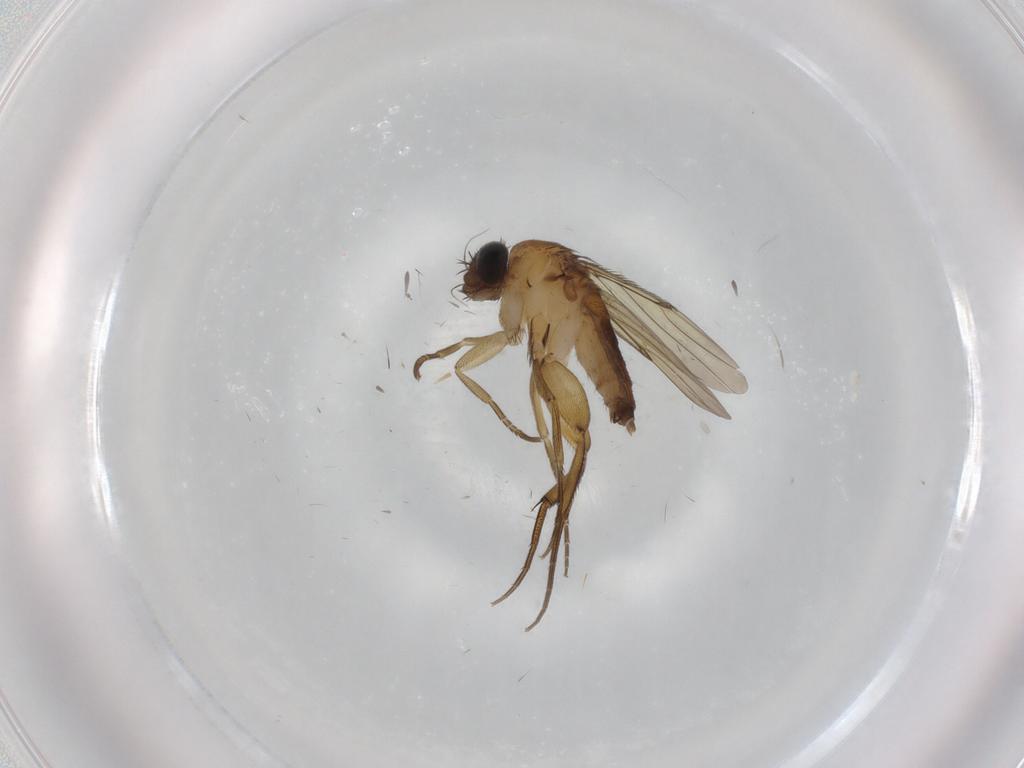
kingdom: Animalia
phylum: Arthropoda
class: Insecta
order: Diptera
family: Phoridae
